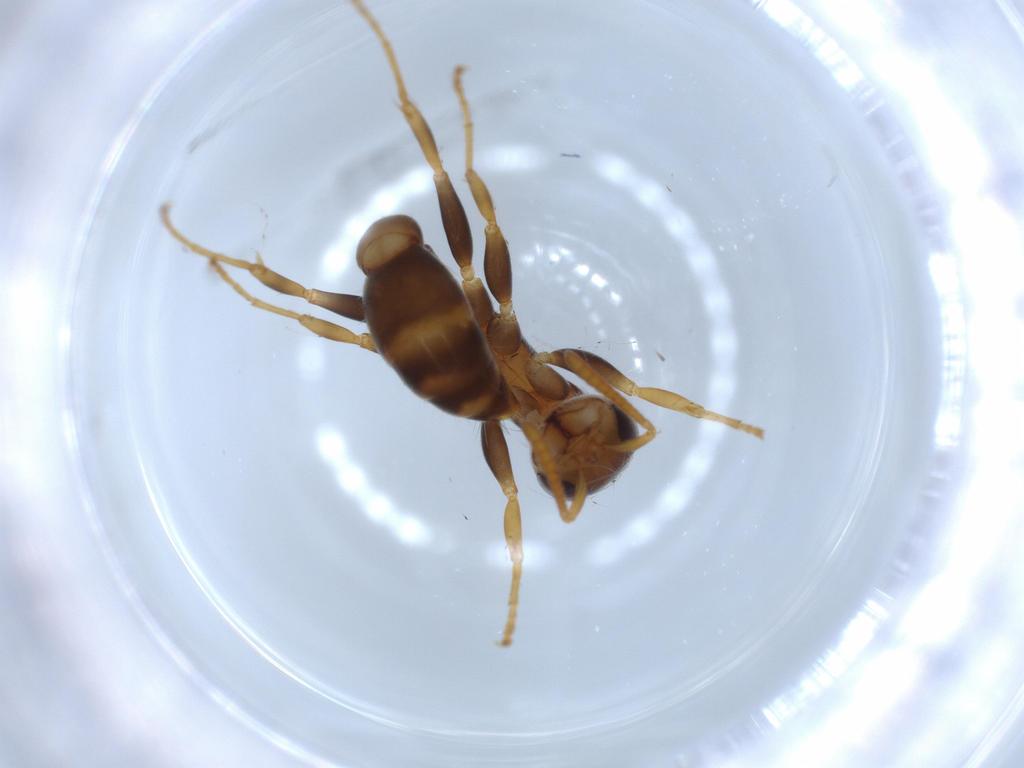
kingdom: Animalia
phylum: Arthropoda
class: Insecta
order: Hymenoptera
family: Formicidae
